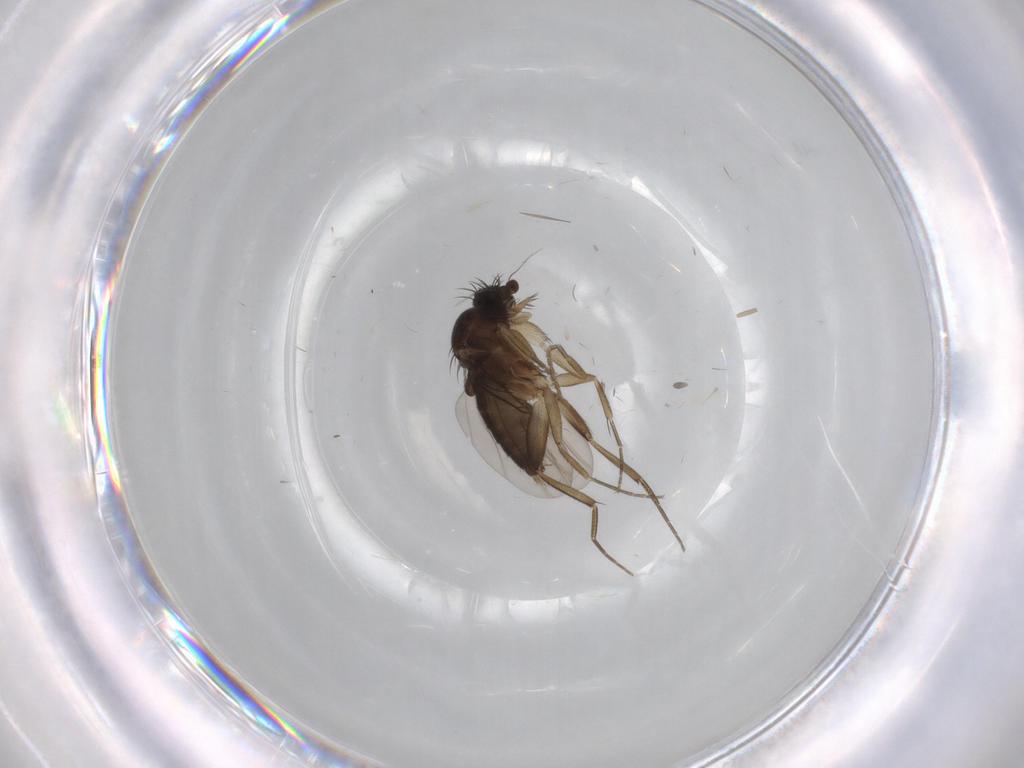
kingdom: Animalia
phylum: Arthropoda
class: Insecta
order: Diptera
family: Phoridae
